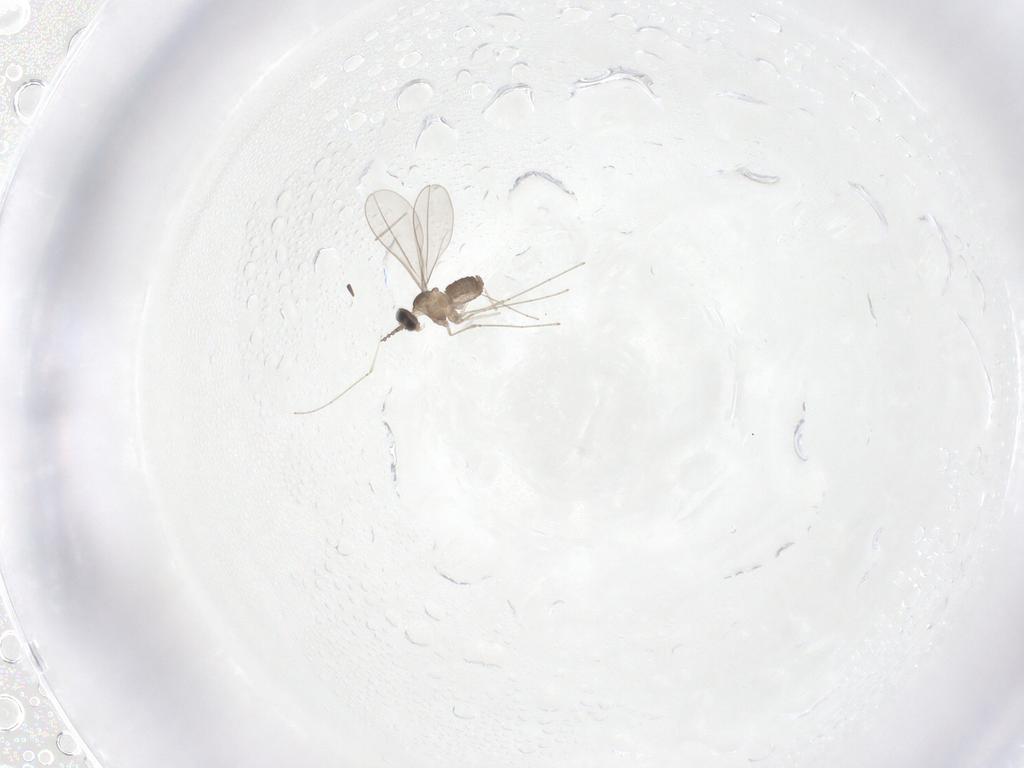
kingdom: Animalia
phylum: Arthropoda
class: Insecta
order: Diptera
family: Cecidomyiidae
